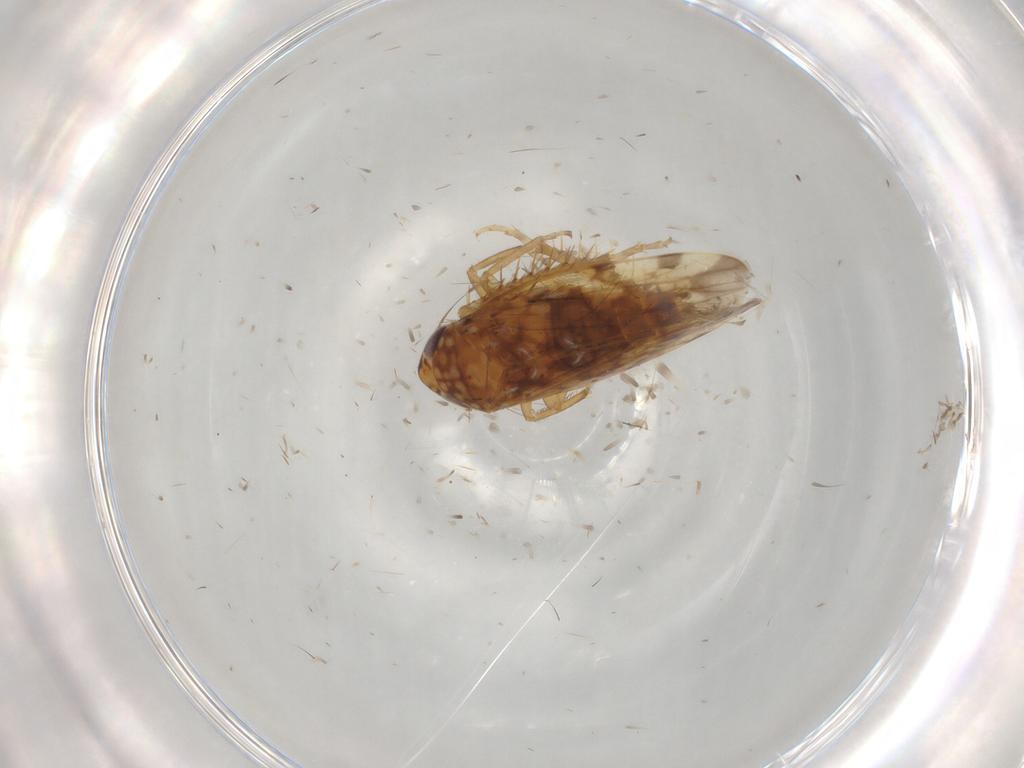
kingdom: Animalia
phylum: Arthropoda
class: Insecta
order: Hemiptera
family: Cicadellidae
